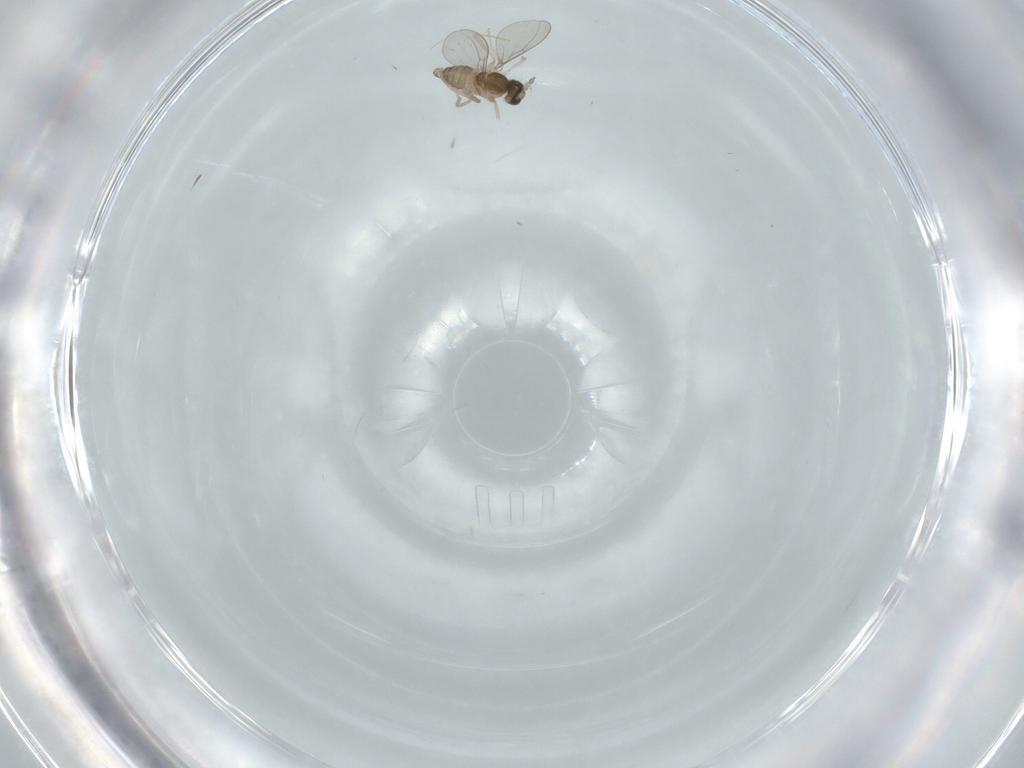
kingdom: Animalia
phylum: Arthropoda
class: Insecta
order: Diptera
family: Cecidomyiidae
